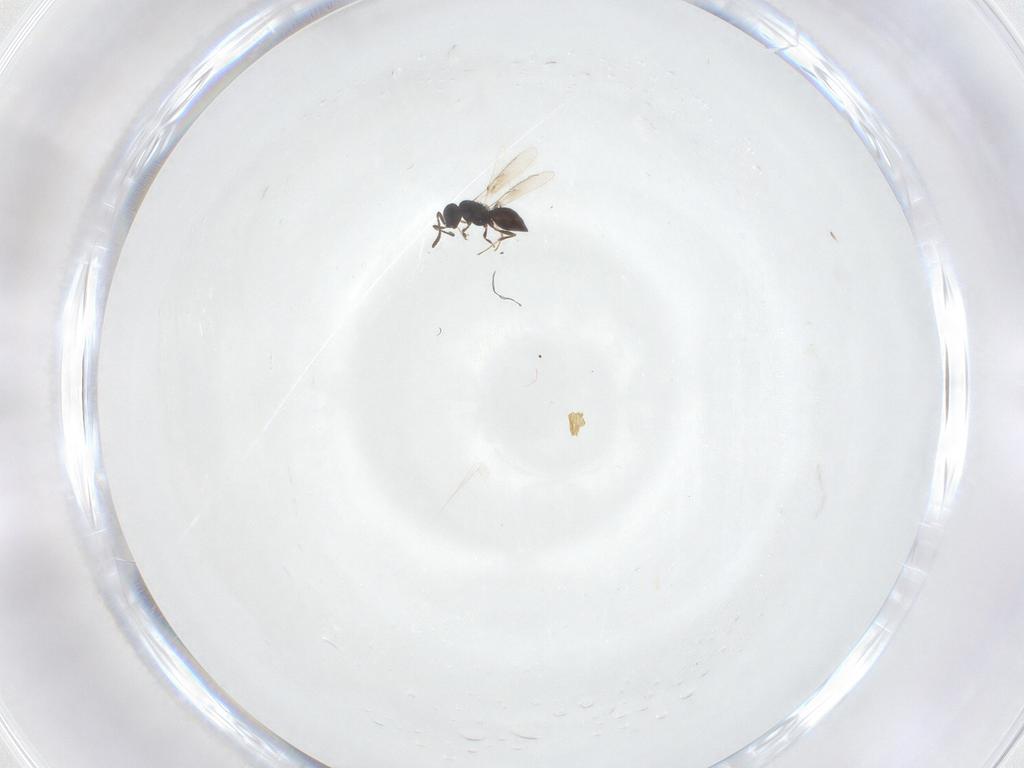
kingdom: Animalia
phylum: Arthropoda
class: Insecta
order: Hymenoptera
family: Scelionidae
